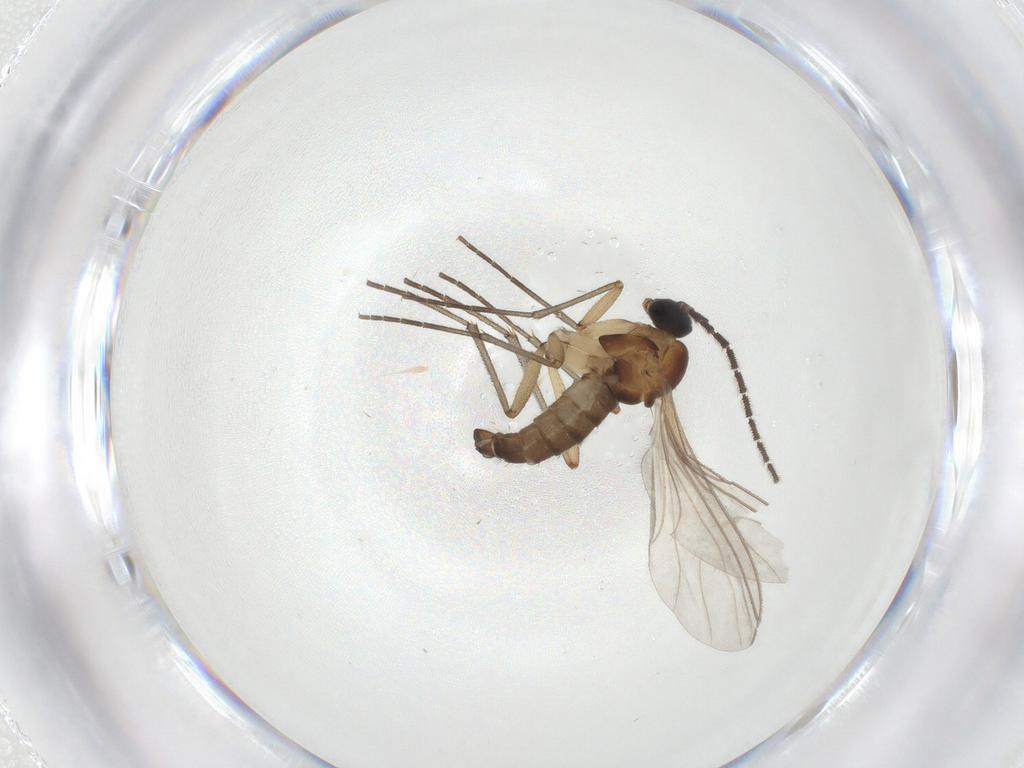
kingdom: Animalia
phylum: Arthropoda
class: Insecta
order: Diptera
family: Sciaridae
